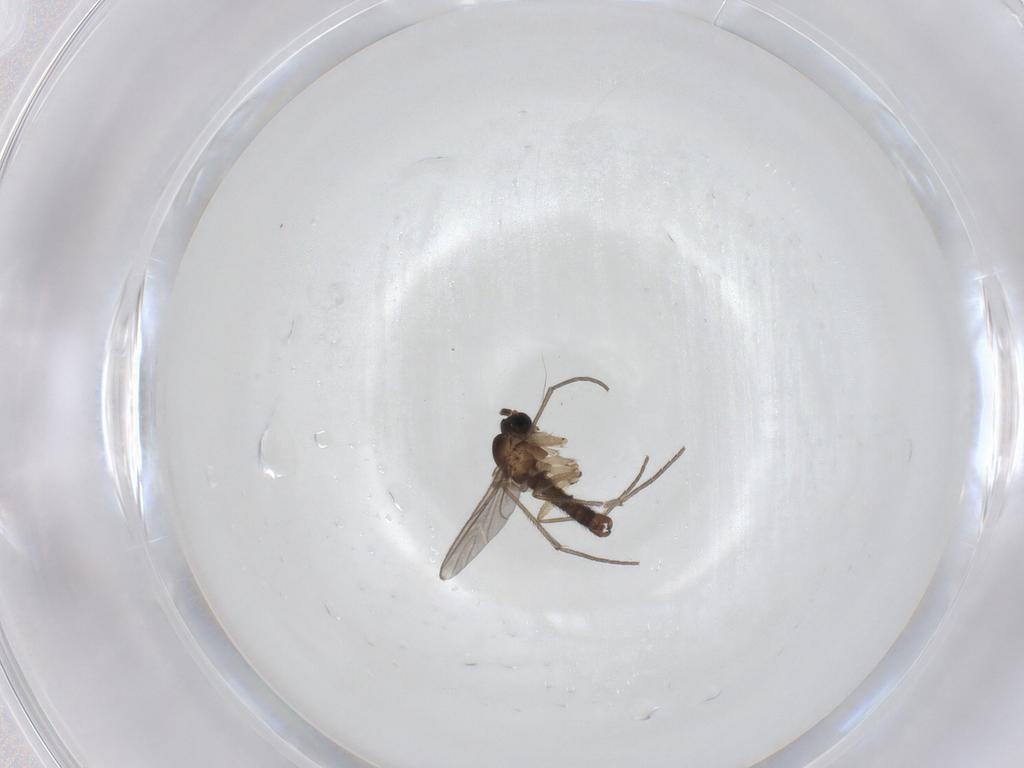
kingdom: Animalia
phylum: Arthropoda
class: Insecta
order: Diptera
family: Sciaridae
